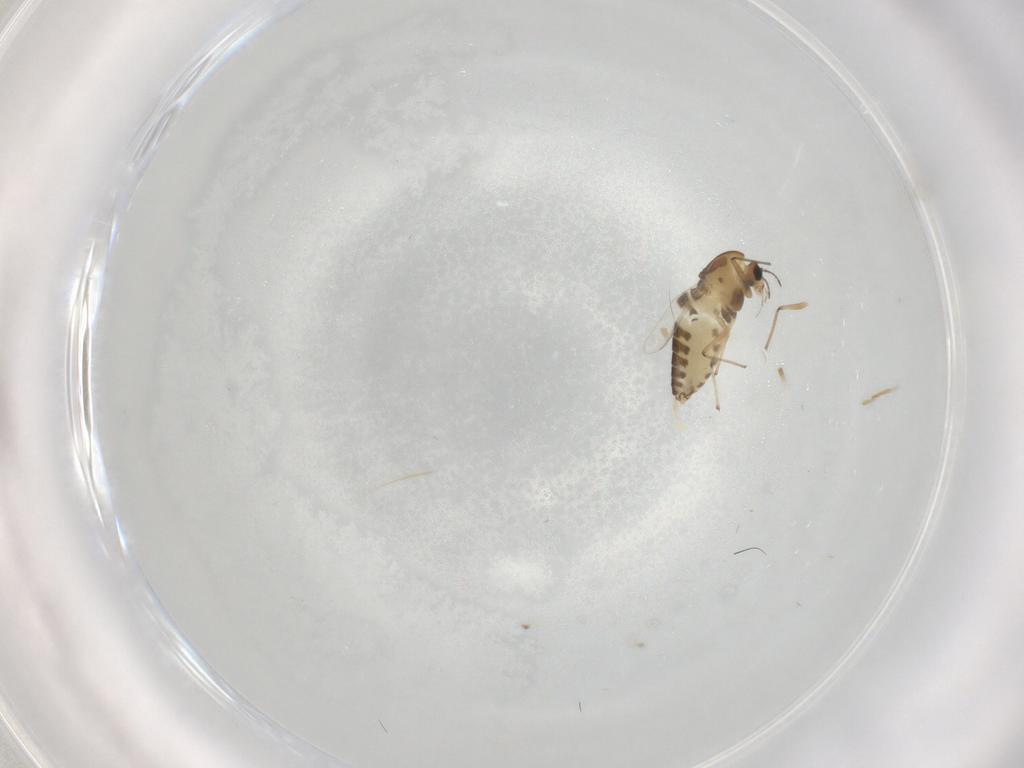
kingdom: Animalia
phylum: Arthropoda
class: Insecta
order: Diptera
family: Chironomidae
